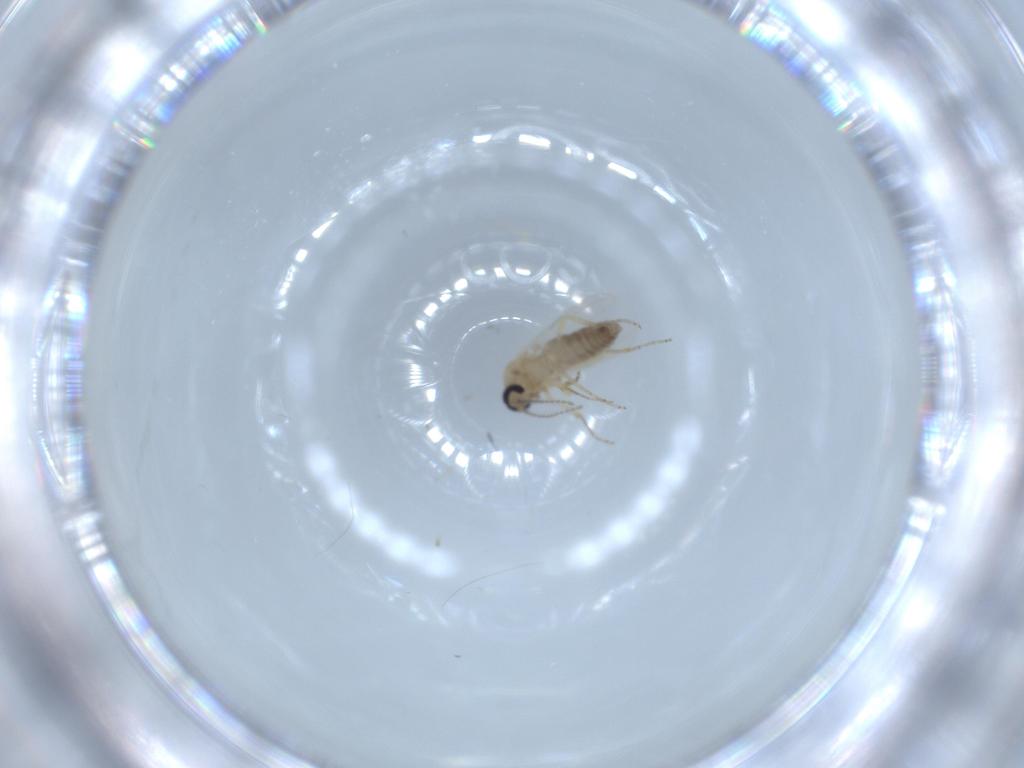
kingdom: Animalia
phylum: Arthropoda
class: Insecta
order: Diptera
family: Ceratopogonidae
